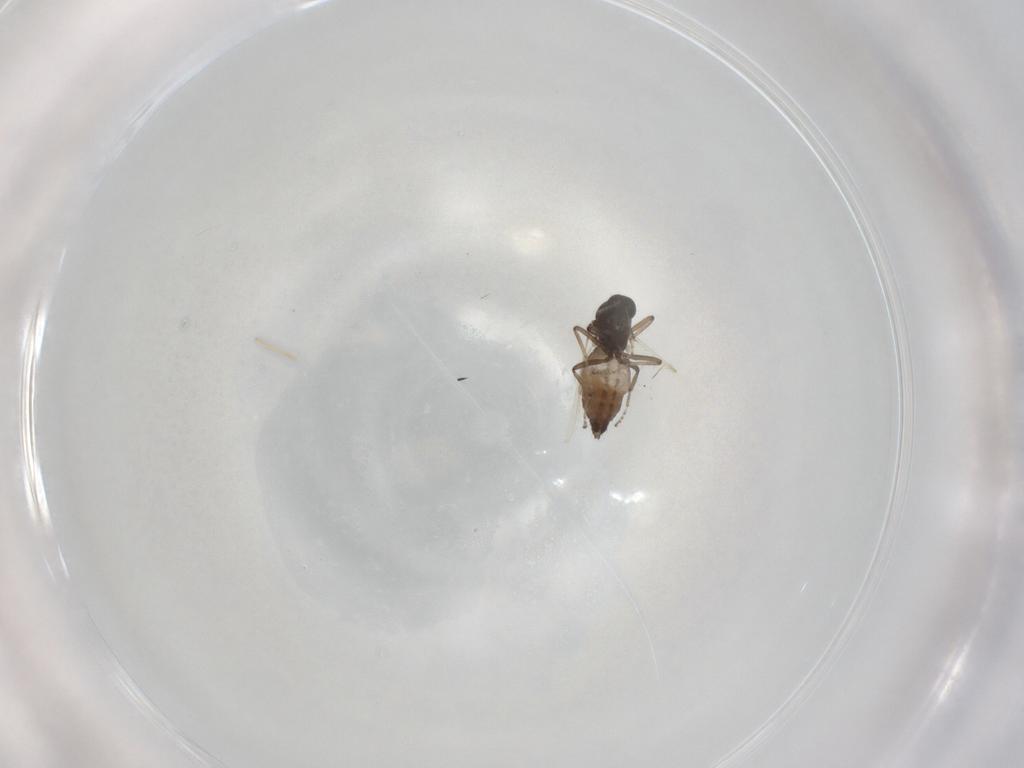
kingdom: Animalia
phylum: Arthropoda
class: Insecta
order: Diptera
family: Ceratopogonidae
